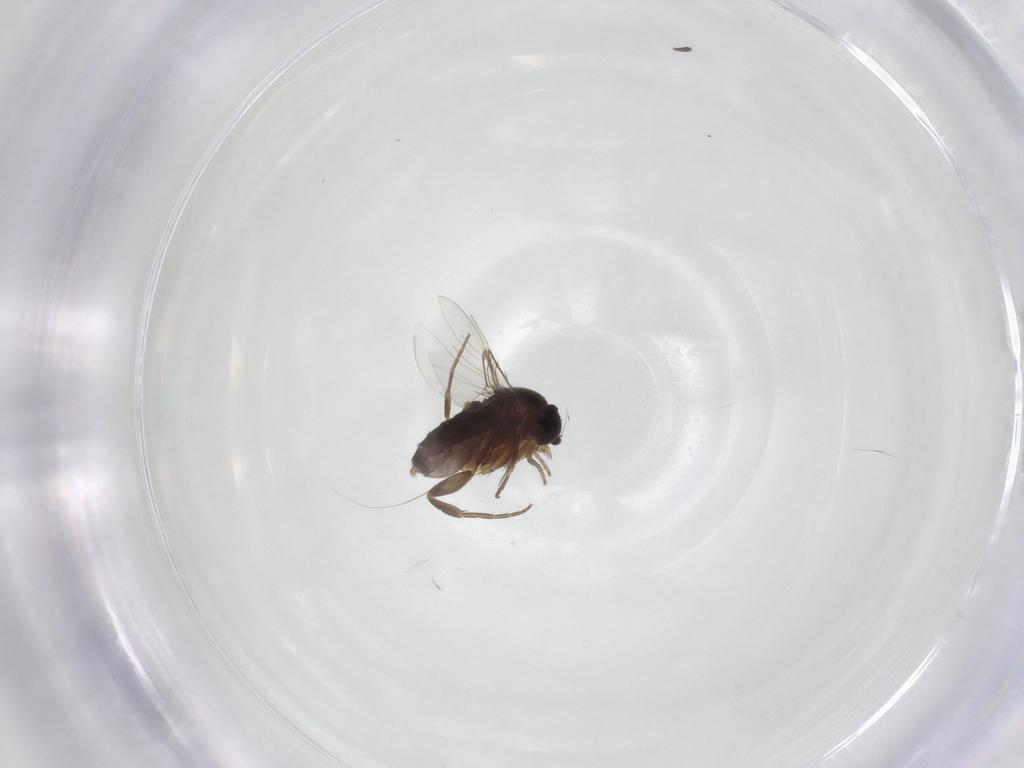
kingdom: Animalia
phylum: Arthropoda
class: Insecta
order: Diptera
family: Phoridae
